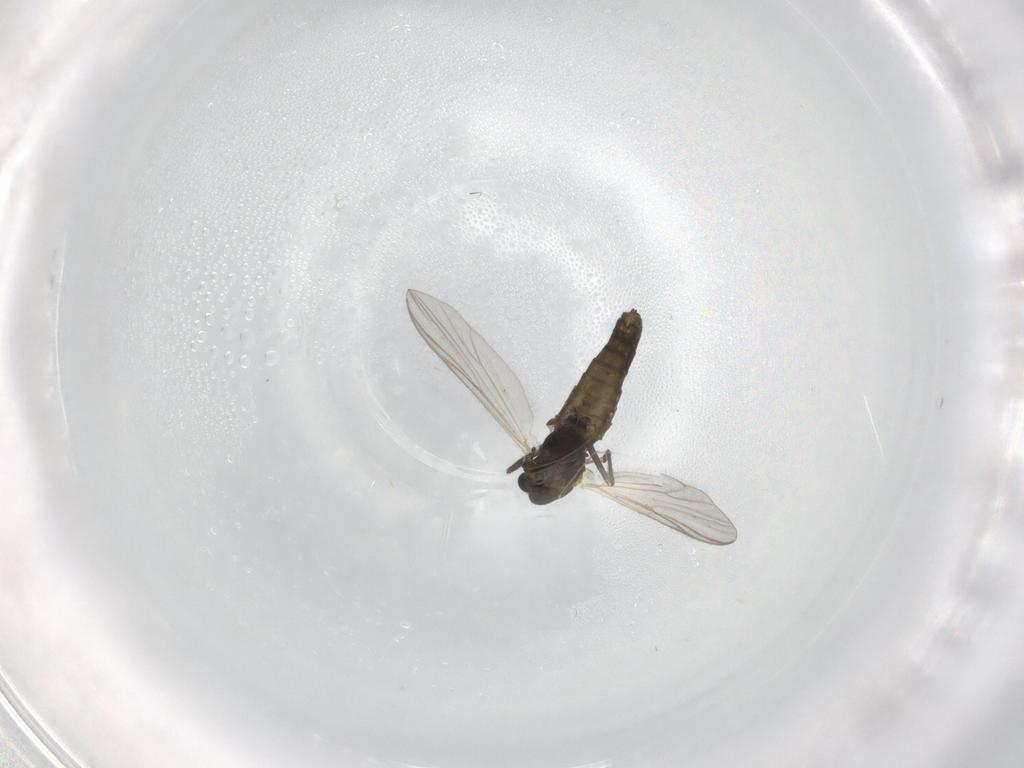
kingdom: Animalia
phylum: Arthropoda
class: Insecta
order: Diptera
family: Chironomidae
